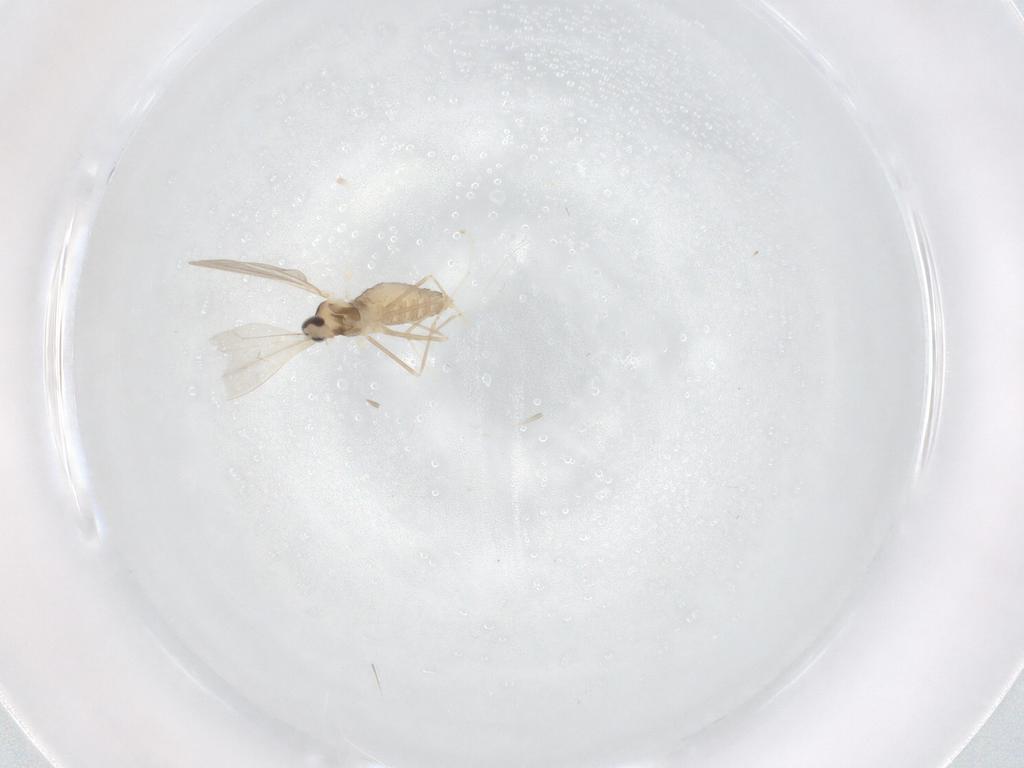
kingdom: Animalia
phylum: Arthropoda
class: Insecta
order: Diptera
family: Cecidomyiidae
